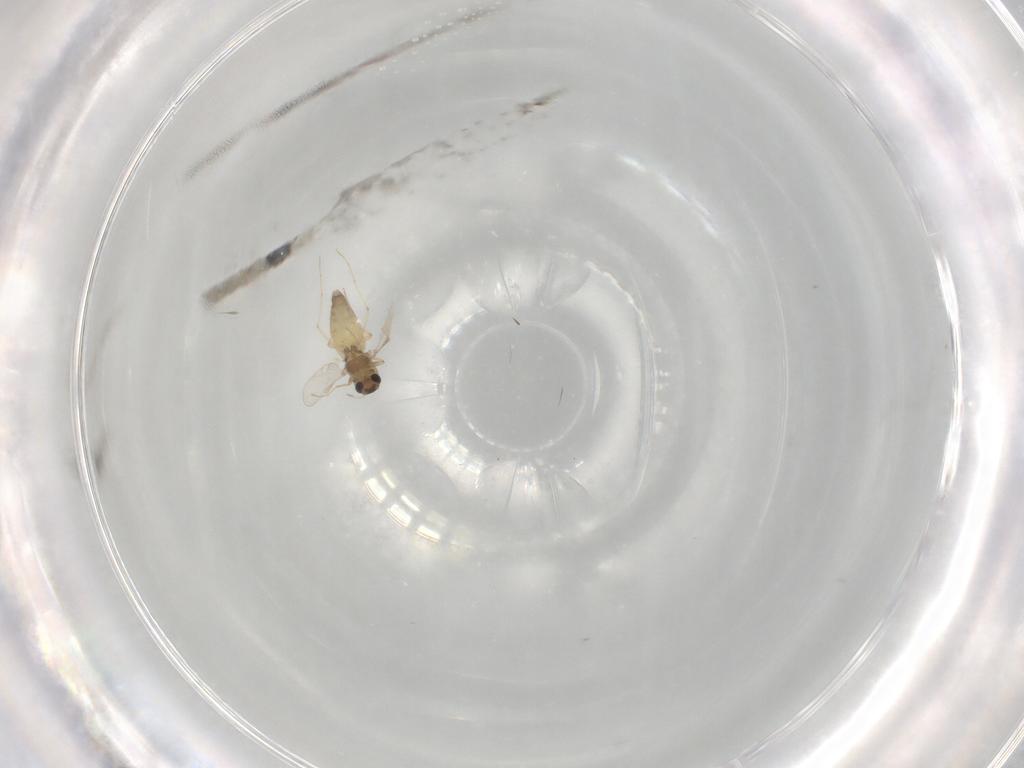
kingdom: Animalia
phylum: Arthropoda
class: Insecta
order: Diptera
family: Chironomidae
